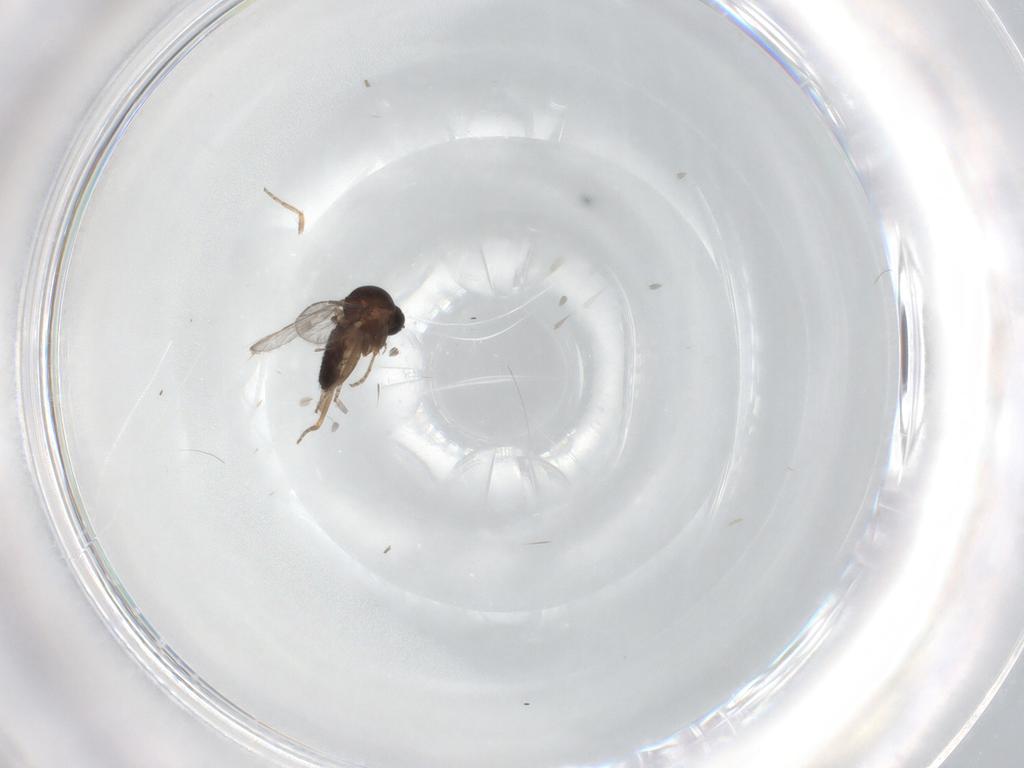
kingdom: Animalia
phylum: Arthropoda
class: Insecta
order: Diptera
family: Ceratopogonidae
